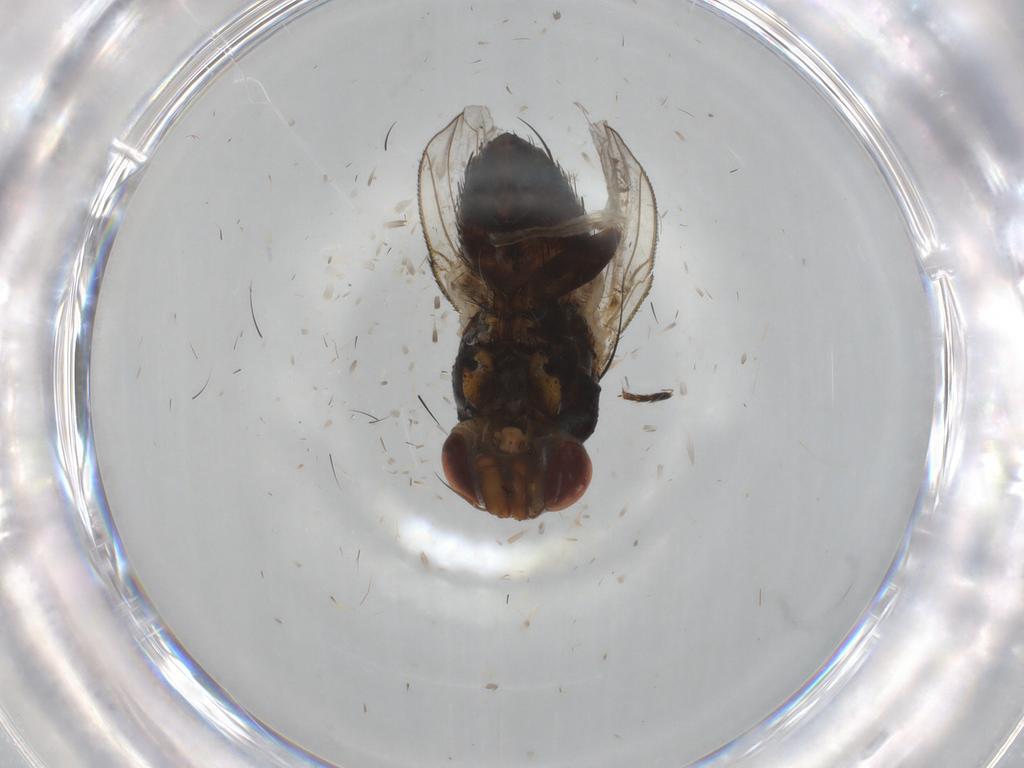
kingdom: Animalia
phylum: Arthropoda
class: Insecta
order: Diptera
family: Glossinidae
